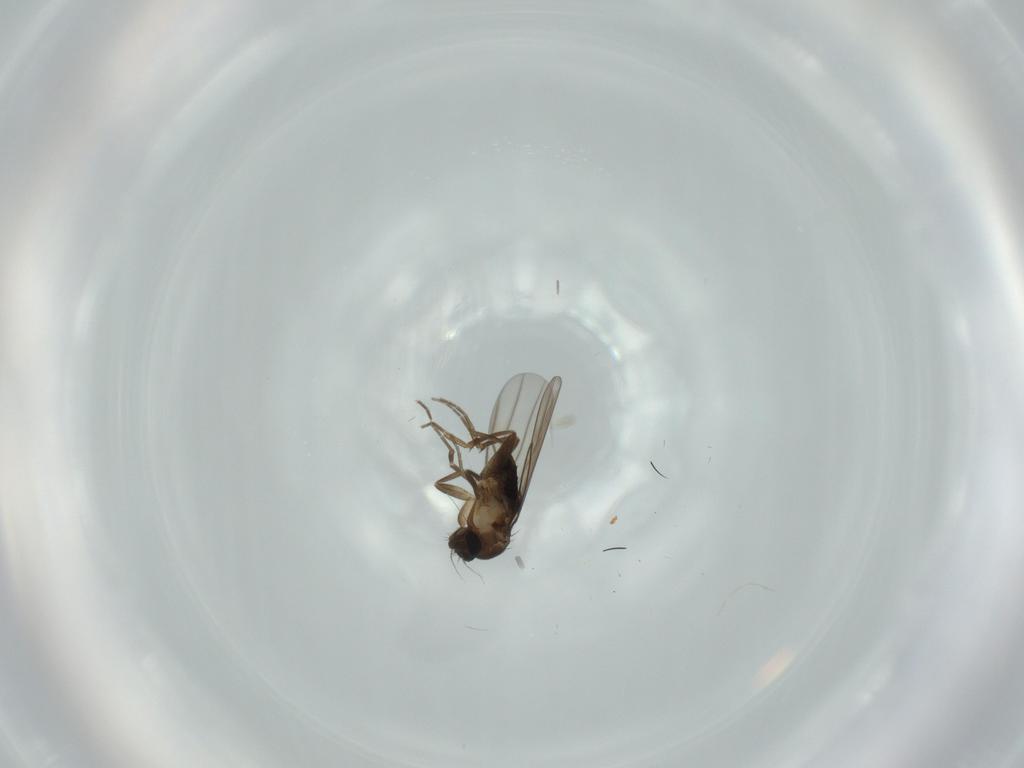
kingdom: Animalia
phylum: Arthropoda
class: Insecta
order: Diptera
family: Phoridae
